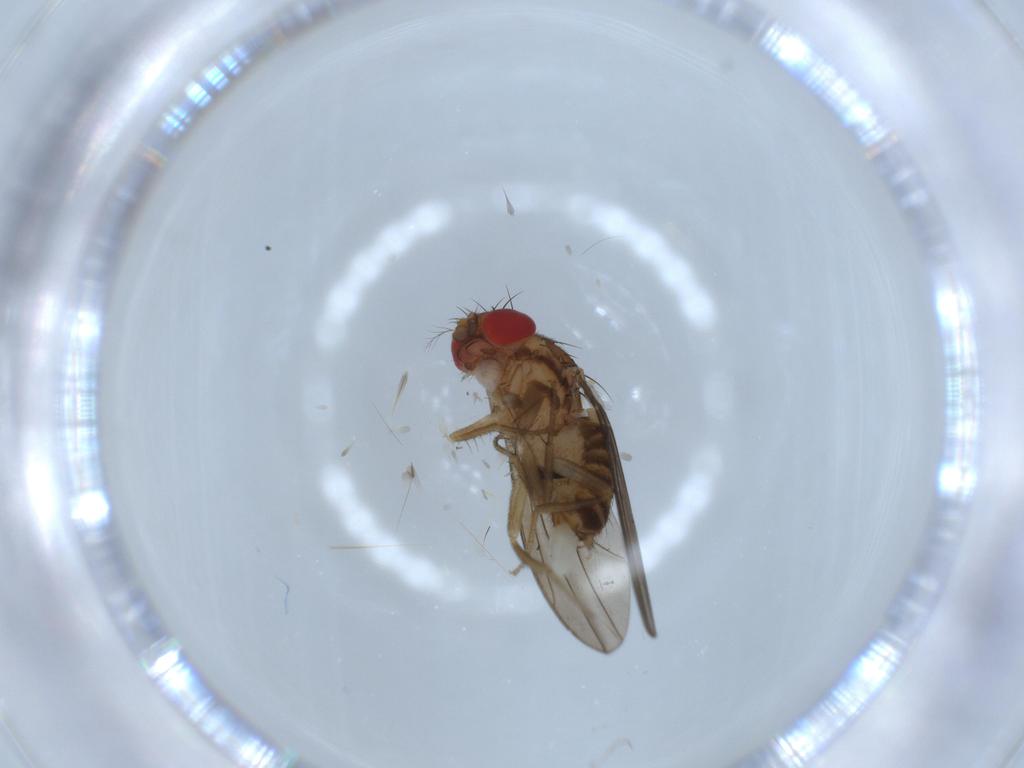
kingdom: Animalia
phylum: Arthropoda
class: Insecta
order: Diptera
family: Drosophilidae
